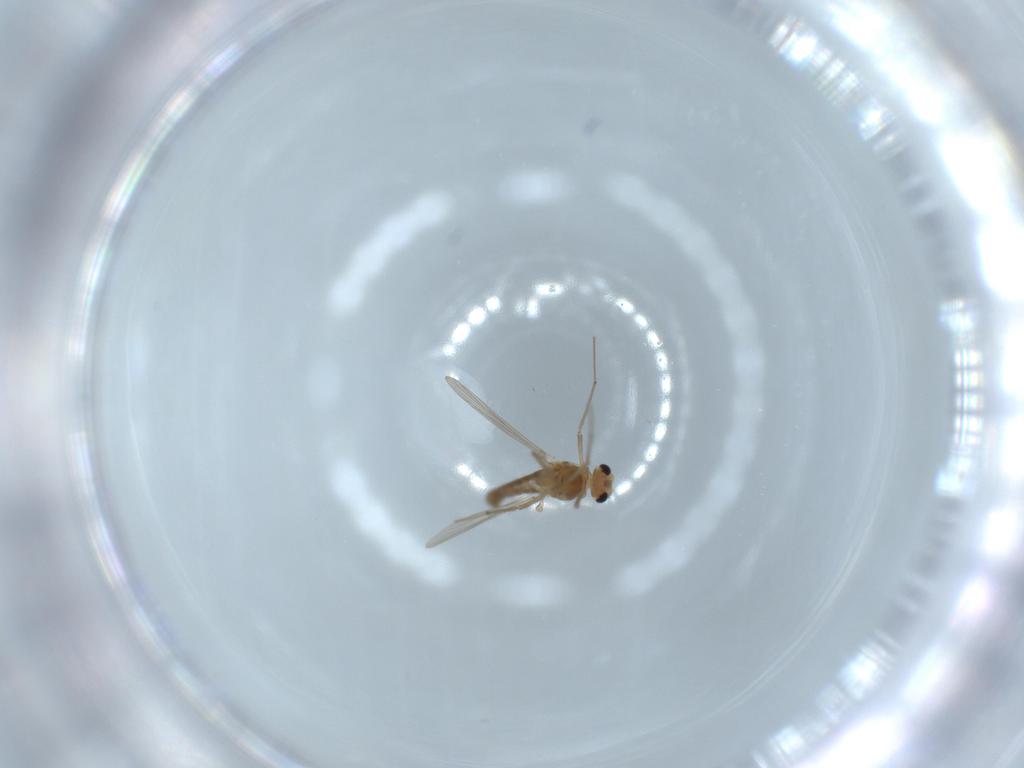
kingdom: Animalia
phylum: Arthropoda
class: Insecta
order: Diptera
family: Chironomidae
